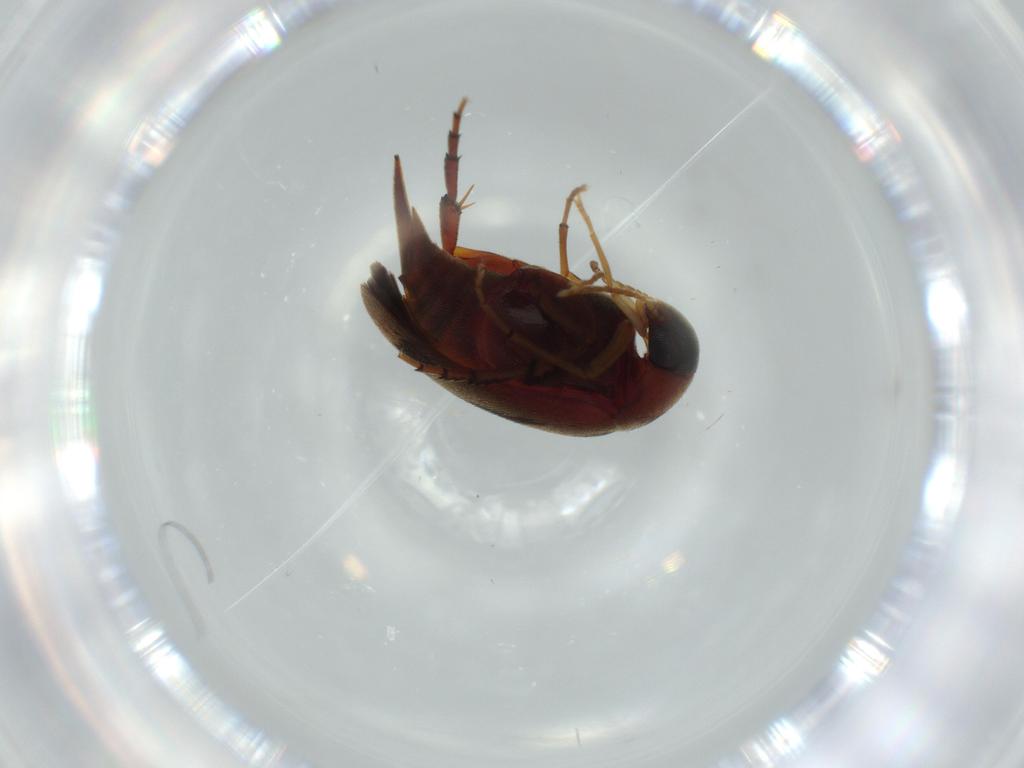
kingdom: Animalia
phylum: Arthropoda
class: Insecta
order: Coleoptera
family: Mordellidae
